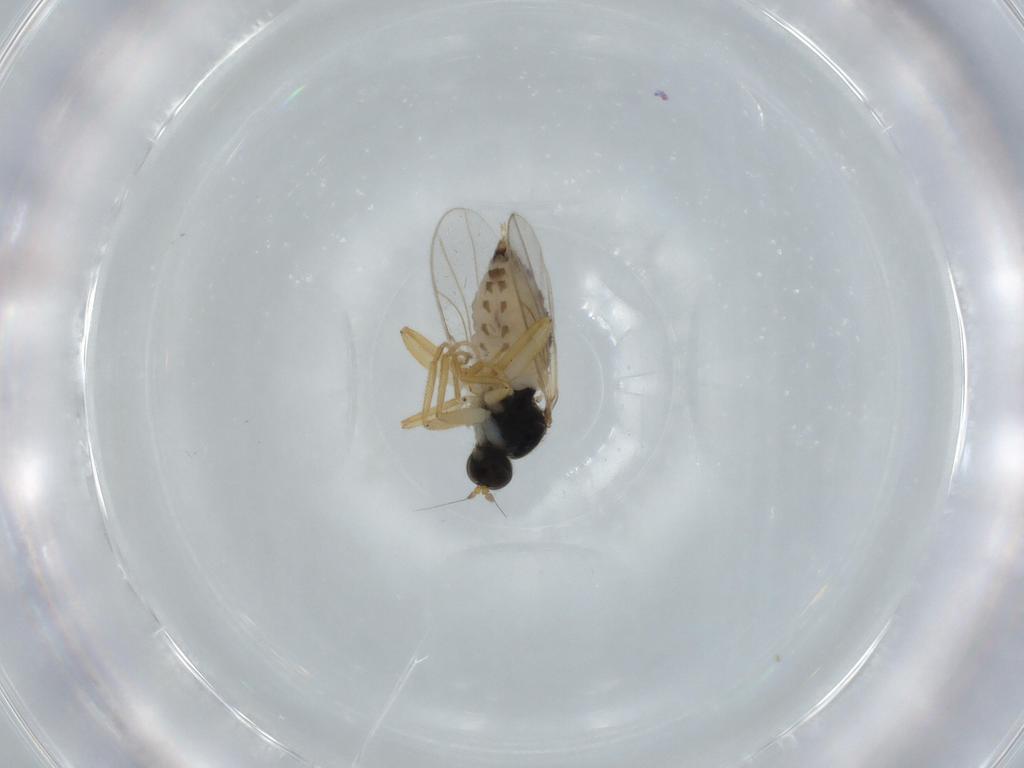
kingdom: Animalia
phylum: Arthropoda
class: Insecta
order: Diptera
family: Hybotidae
